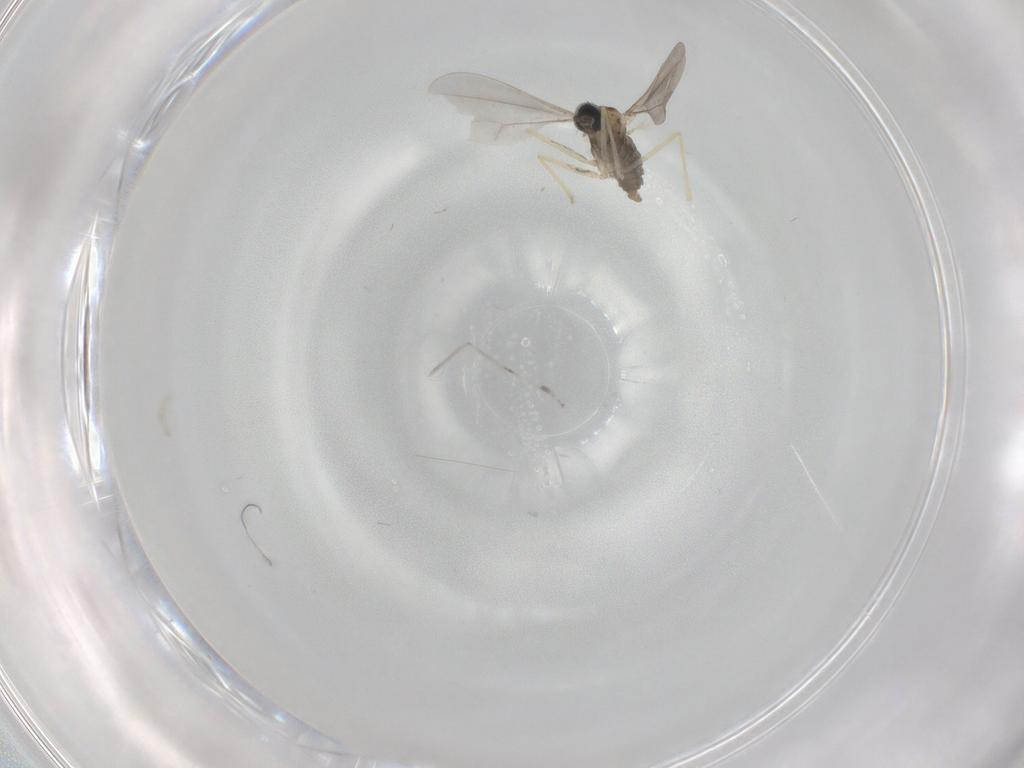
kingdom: Animalia
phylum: Arthropoda
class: Insecta
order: Diptera
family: Cecidomyiidae
